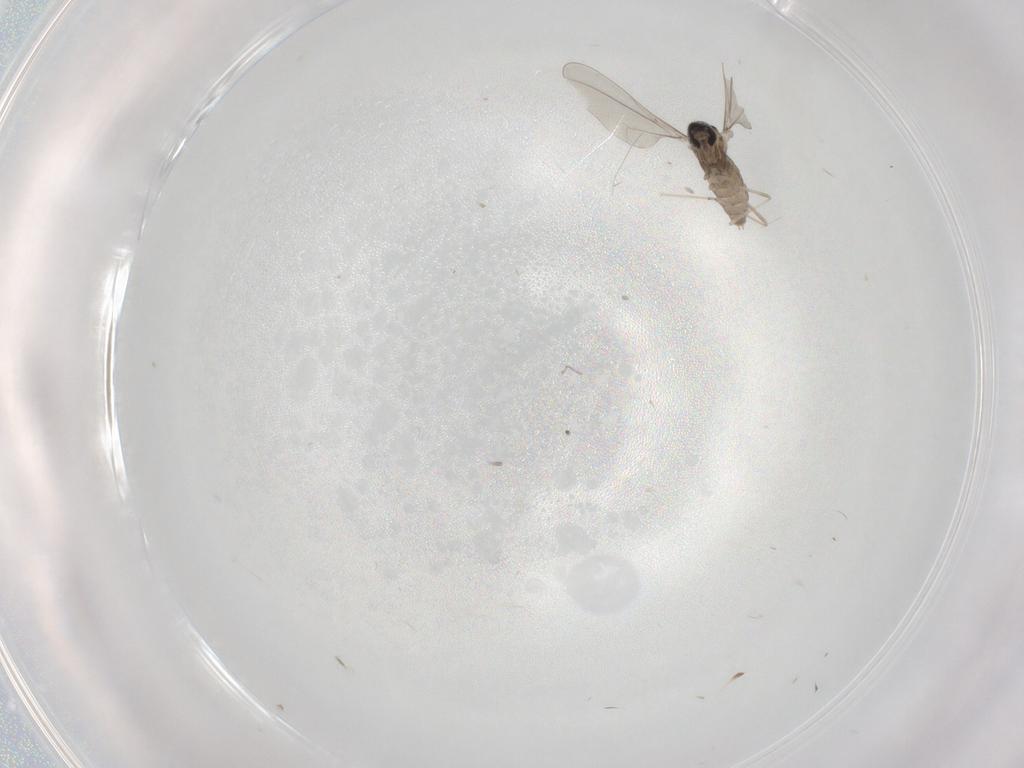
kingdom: Animalia
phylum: Arthropoda
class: Insecta
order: Diptera
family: Cecidomyiidae
